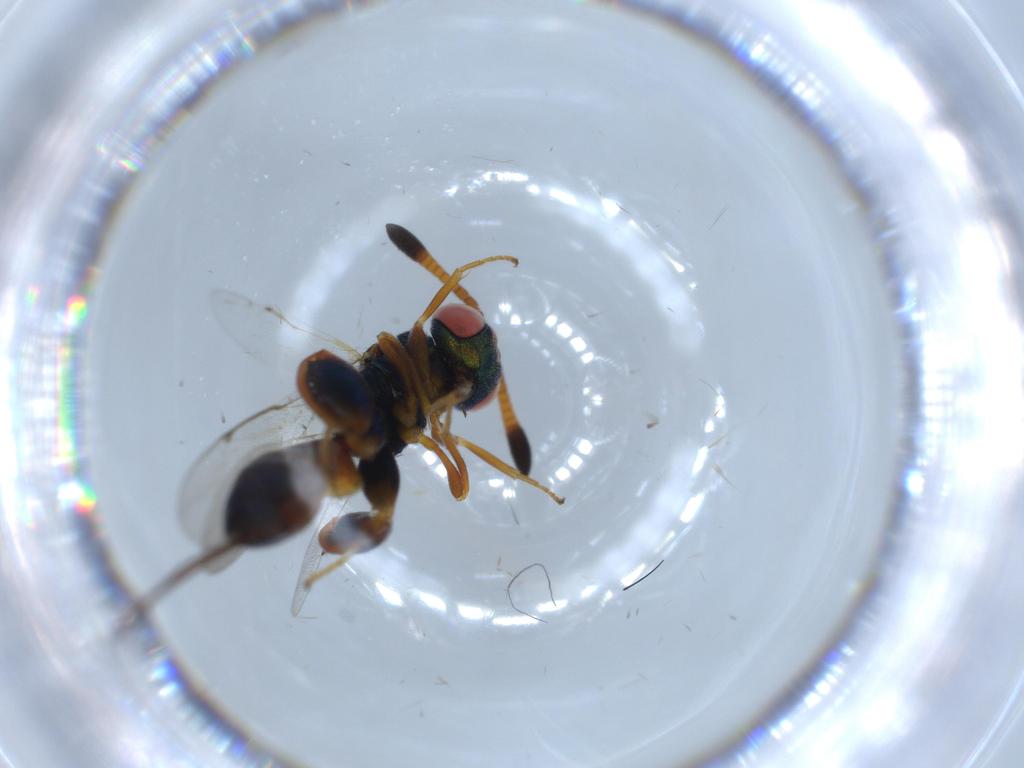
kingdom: Animalia
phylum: Arthropoda
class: Insecta
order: Hymenoptera
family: Torymidae
